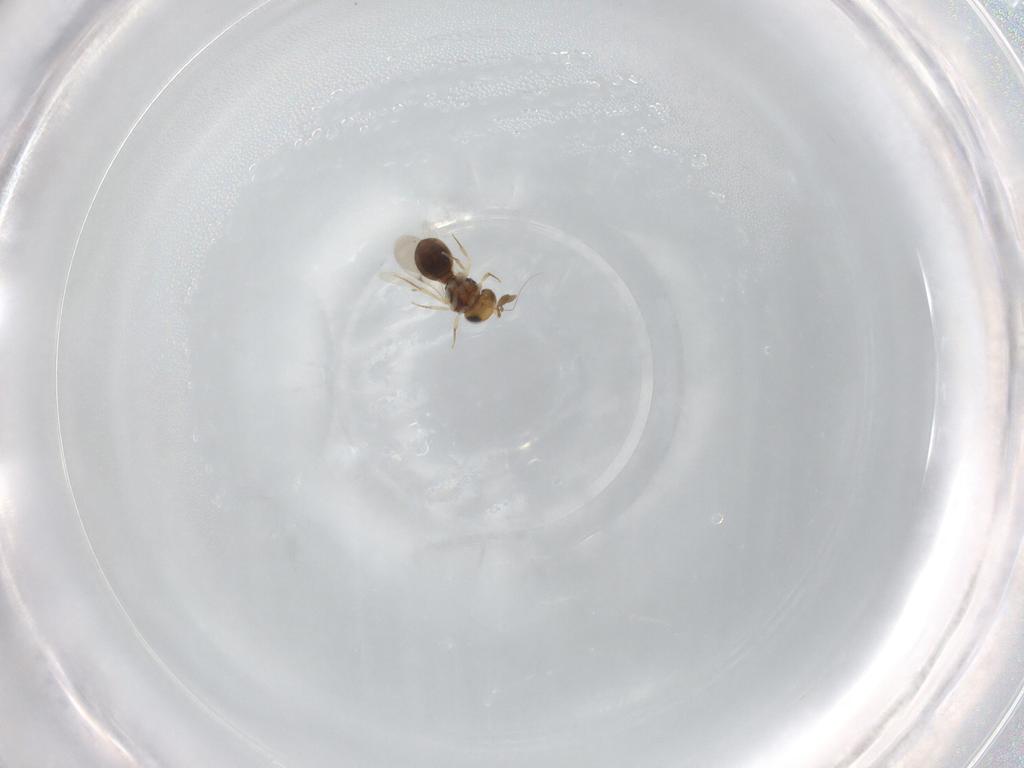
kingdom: Animalia
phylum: Arthropoda
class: Insecta
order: Hymenoptera
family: Scelionidae
